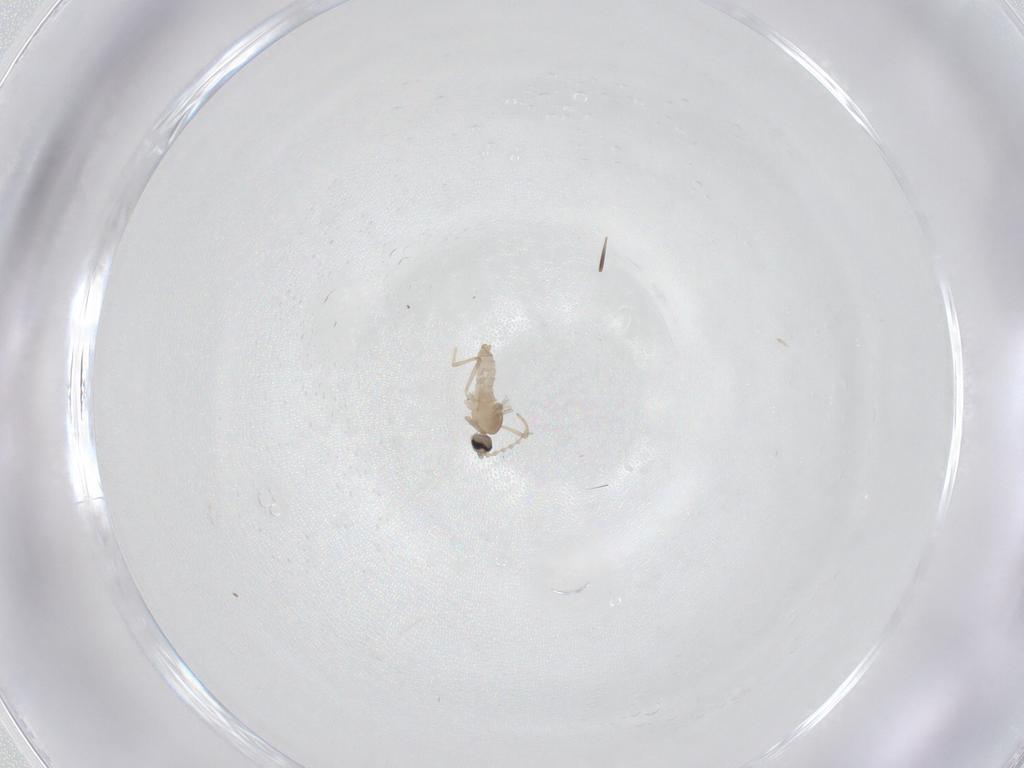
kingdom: Animalia
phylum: Arthropoda
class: Insecta
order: Diptera
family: Cecidomyiidae
